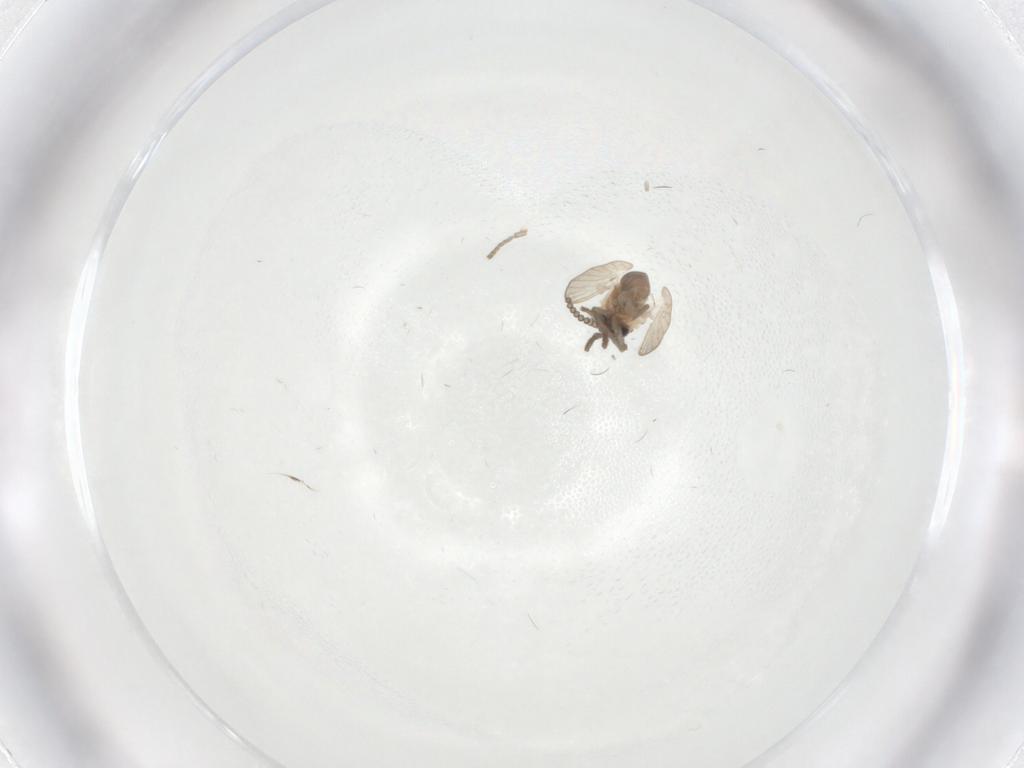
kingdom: Animalia
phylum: Arthropoda
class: Insecta
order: Diptera
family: Psychodidae
